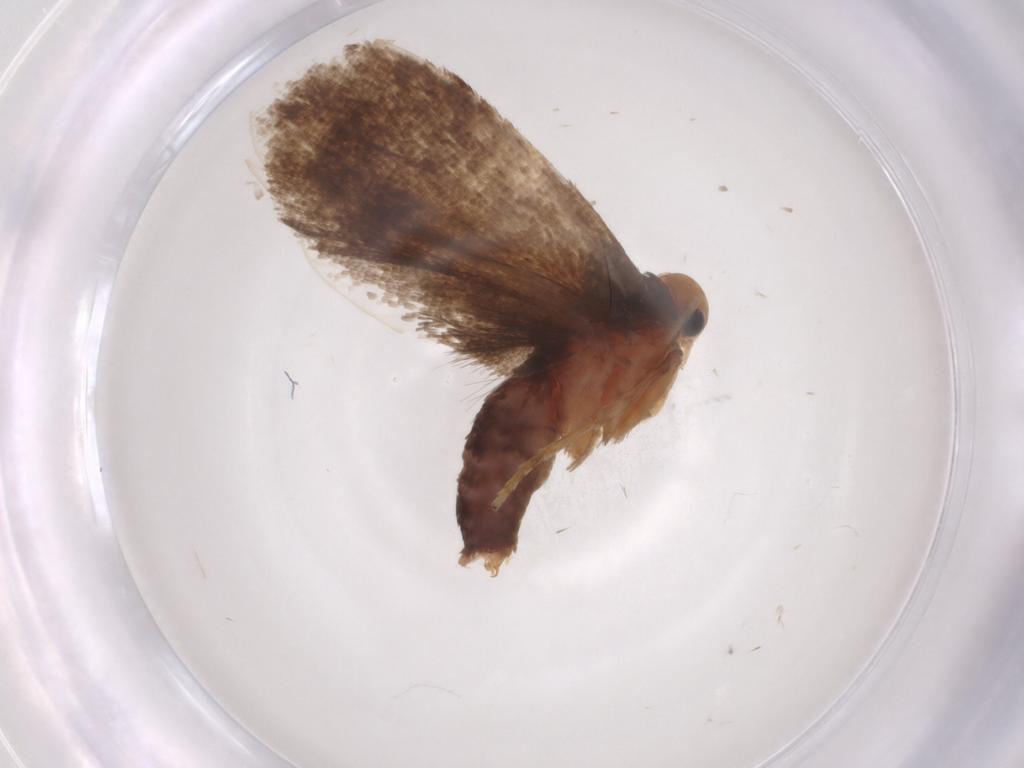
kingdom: Animalia
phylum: Arthropoda
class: Insecta
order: Lepidoptera
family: Depressariidae
